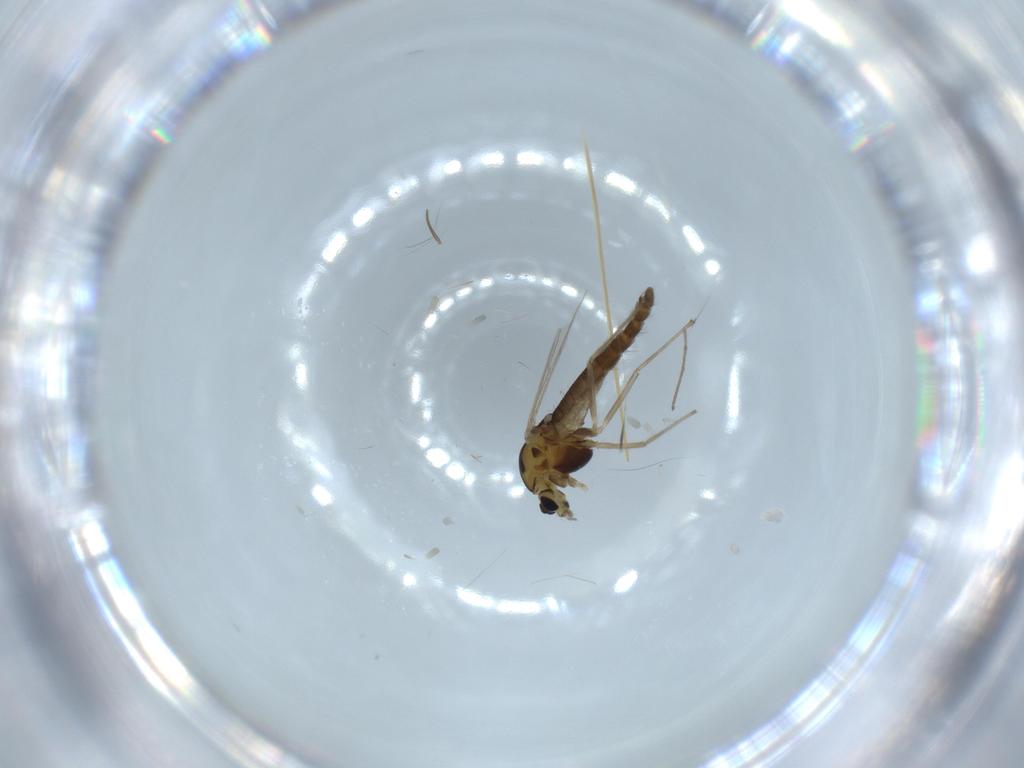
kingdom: Animalia
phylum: Arthropoda
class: Insecta
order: Diptera
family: Chironomidae
